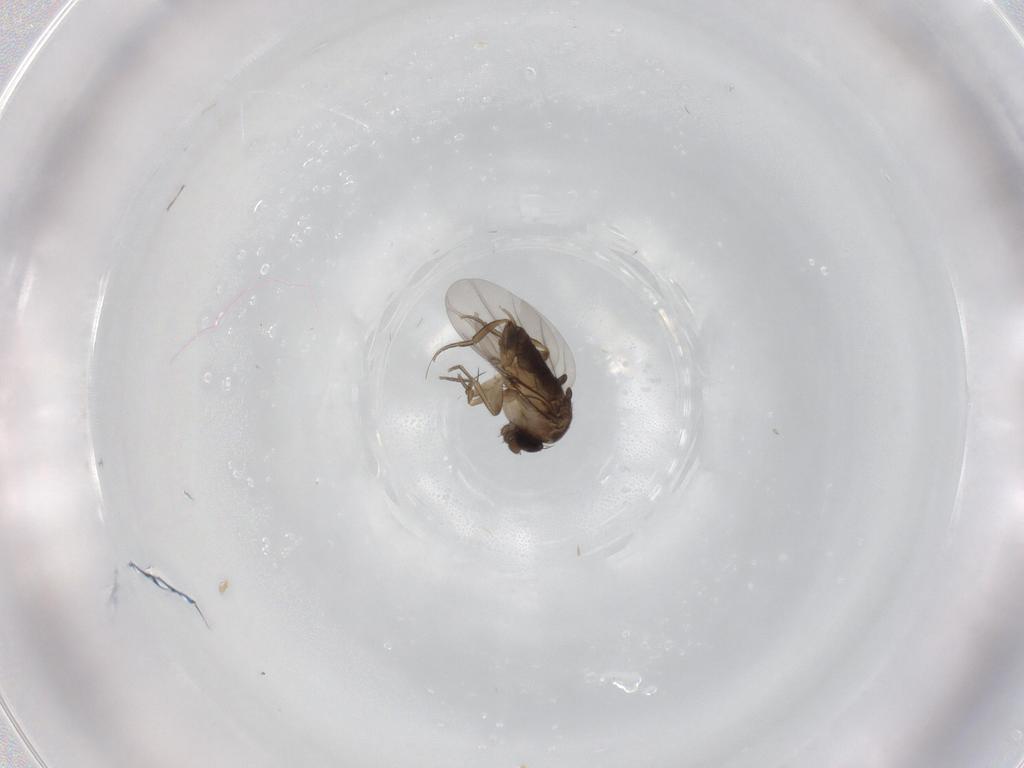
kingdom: Animalia
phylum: Arthropoda
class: Insecta
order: Diptera
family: Phoridae
